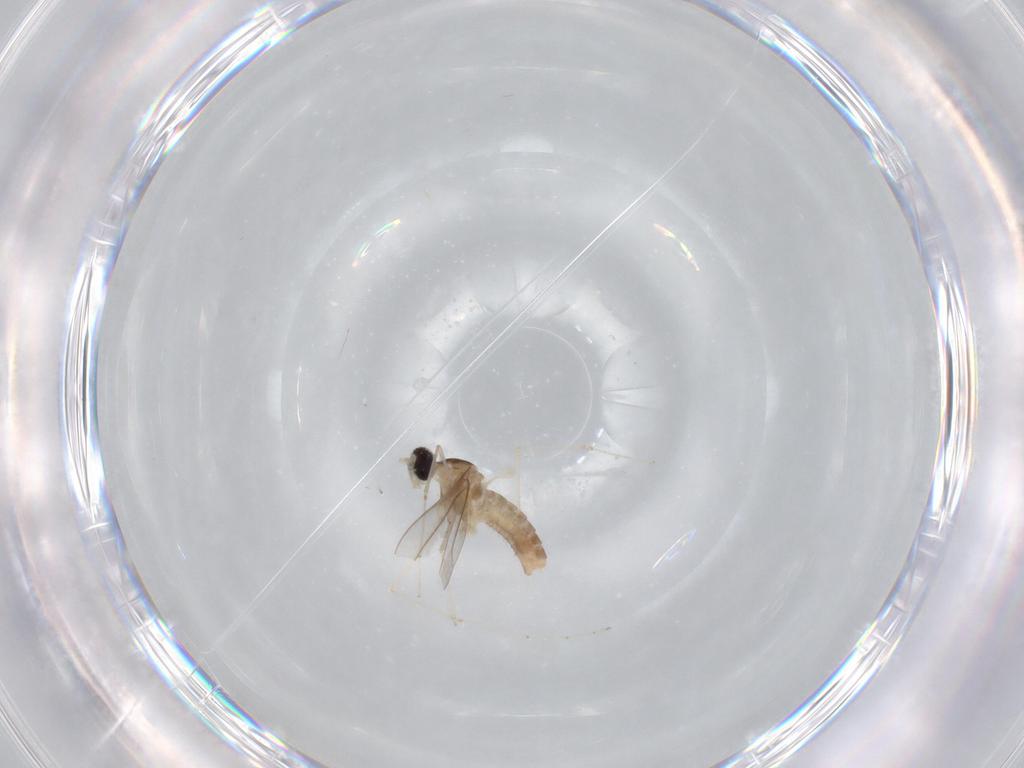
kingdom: Animalia
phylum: Arthropoda
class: Insecta
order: Diptera
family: Cecidomyiidae
